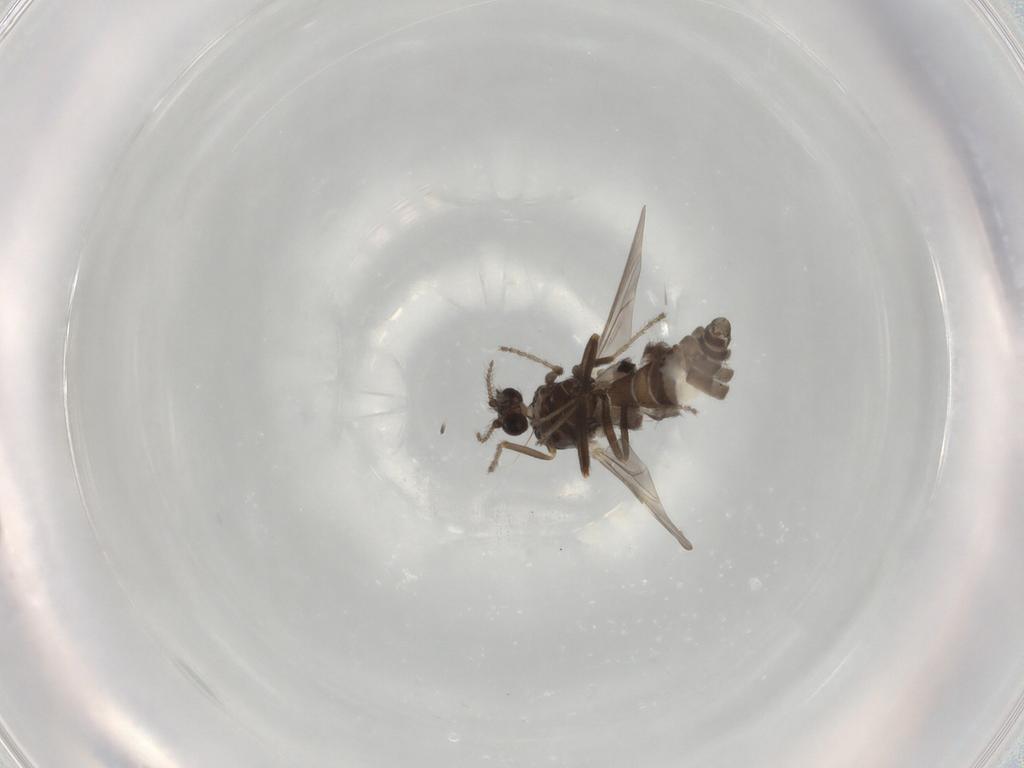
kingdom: Animalia
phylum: Arthropoda
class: Insecta
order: Diptera
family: Ceratopogonidae
